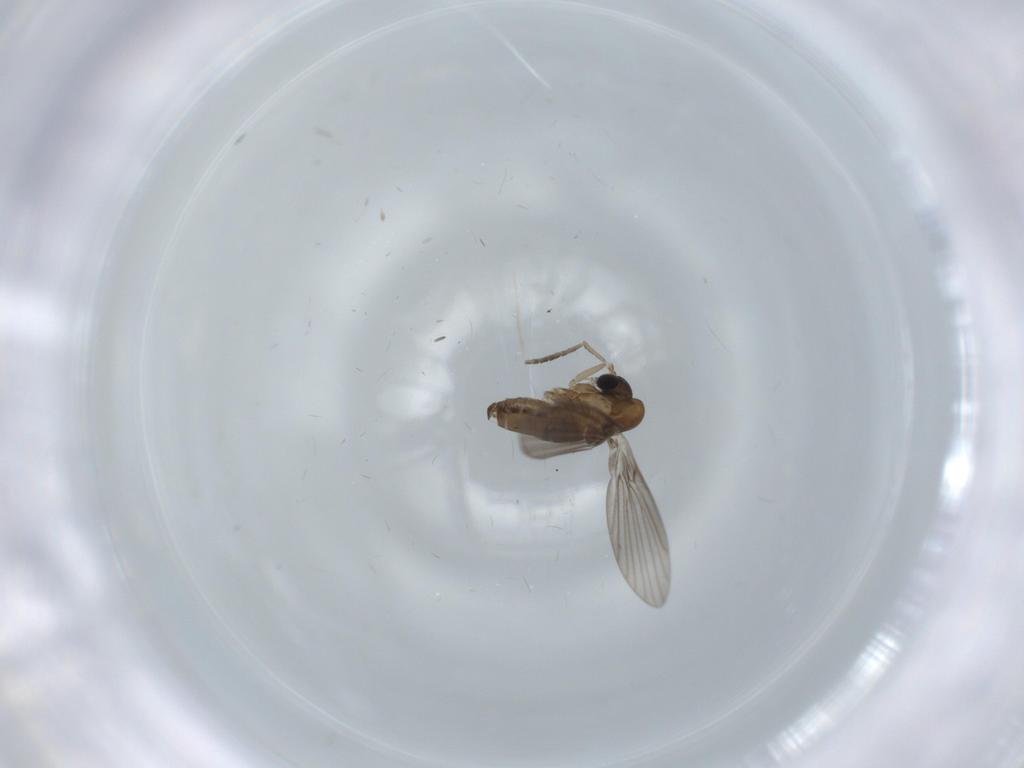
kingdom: Animalia
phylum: Arthropoda
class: Insecta
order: Diptera
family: Psychodidae
